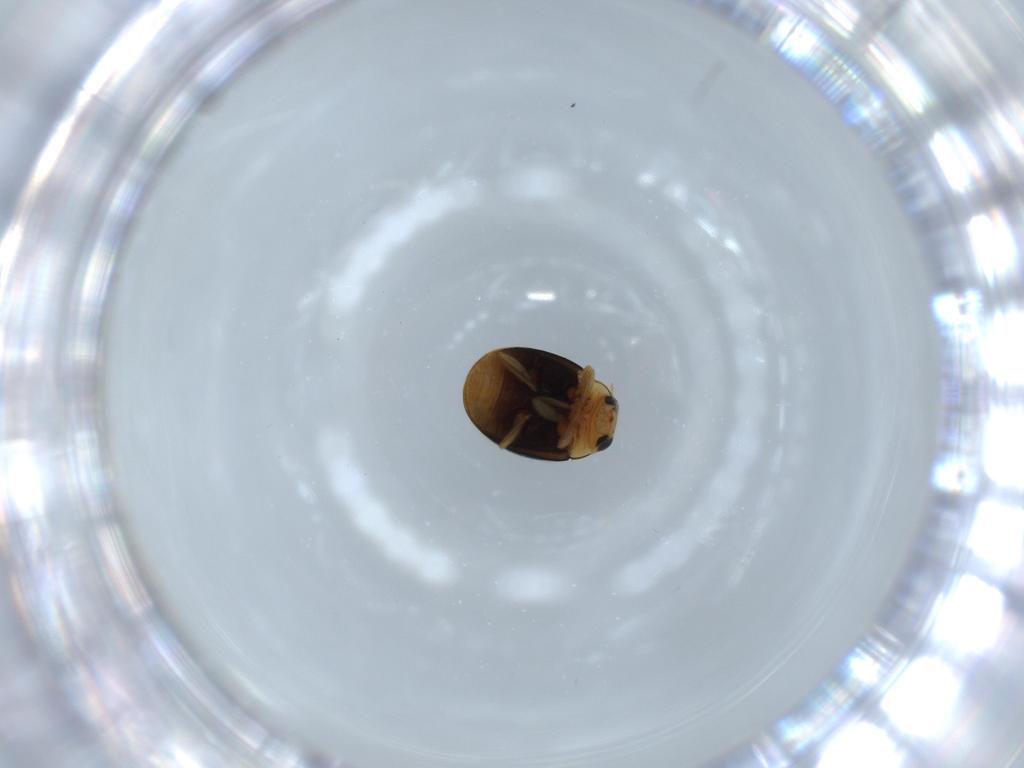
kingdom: Animalia
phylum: Arthropoda
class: Insecta
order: Coleoptera
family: Coccinellidae
